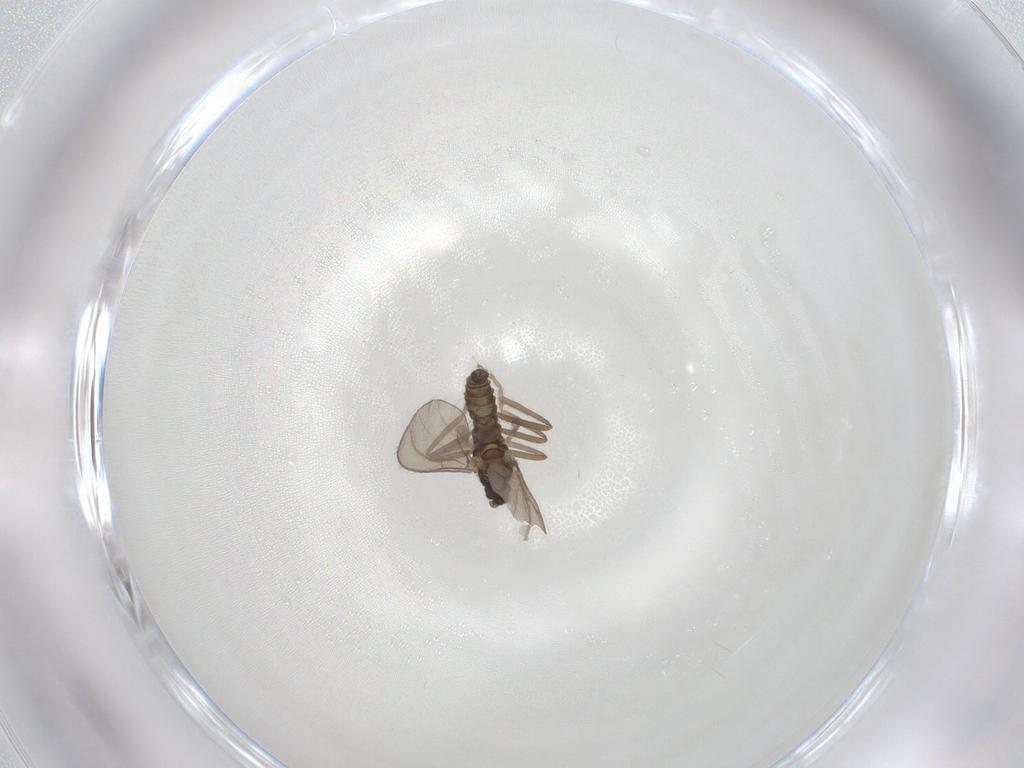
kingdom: Animalia
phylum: Arthropoda
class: Insecta
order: Diptera
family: Cecidomyiidae
